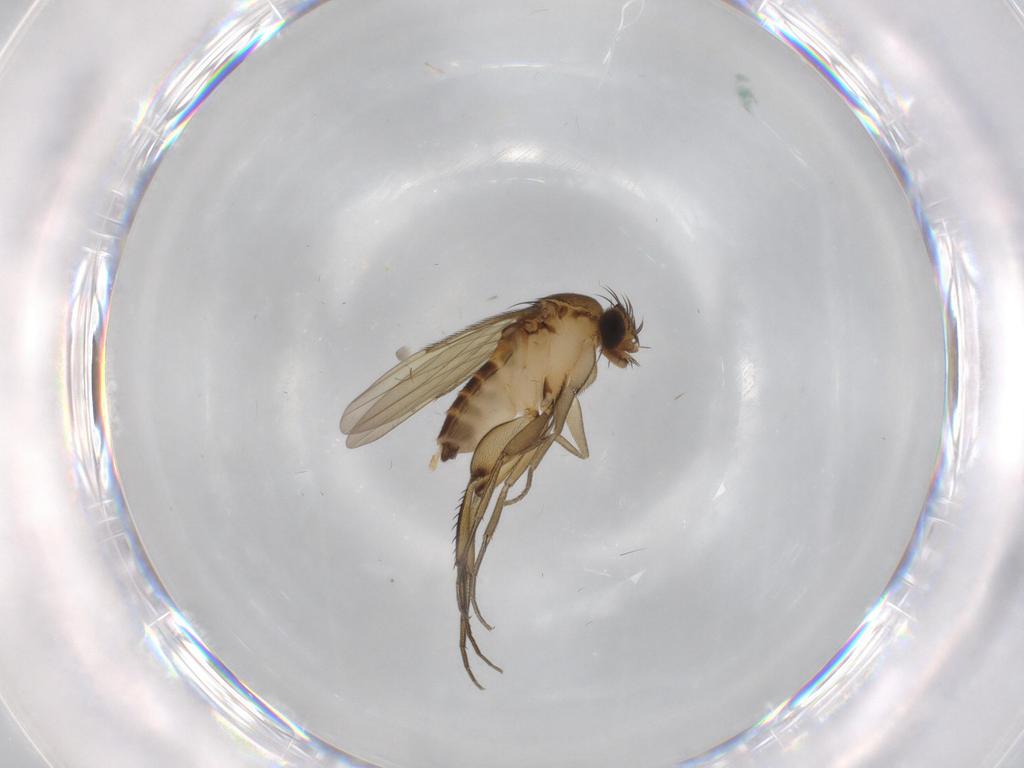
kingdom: Animalia
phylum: Arthropoda
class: Insecta
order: Diptera
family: Phoridae
